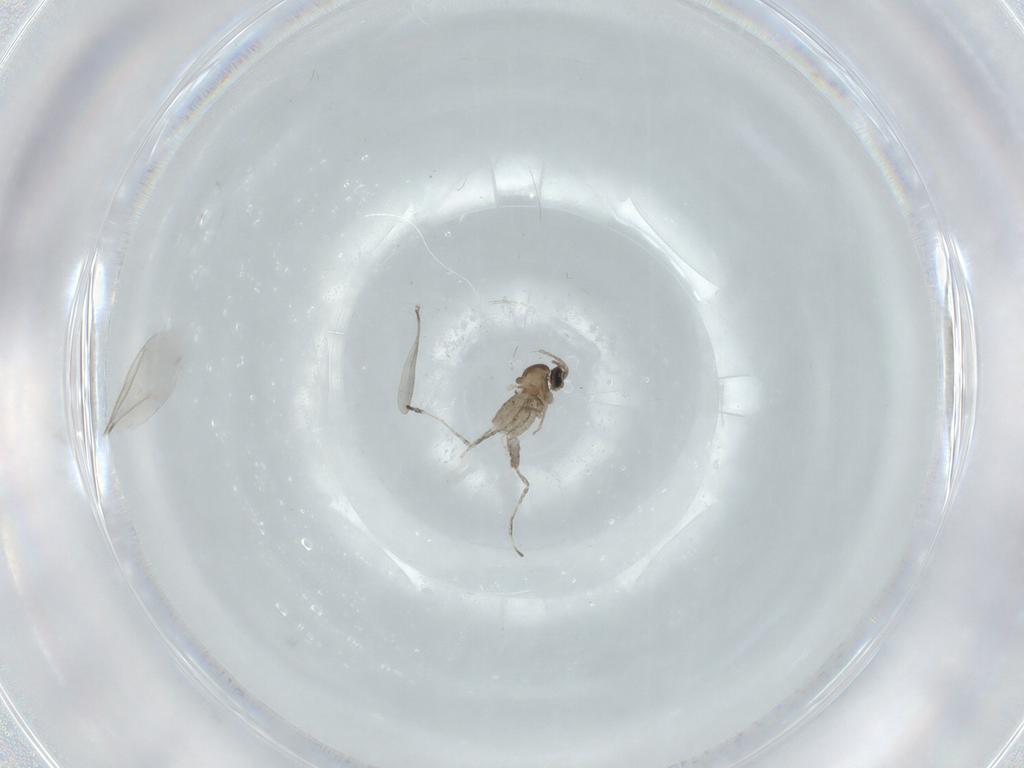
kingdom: Animalia
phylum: Arthropoda
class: Insecta
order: Diptera
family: Cecidomyiidae
